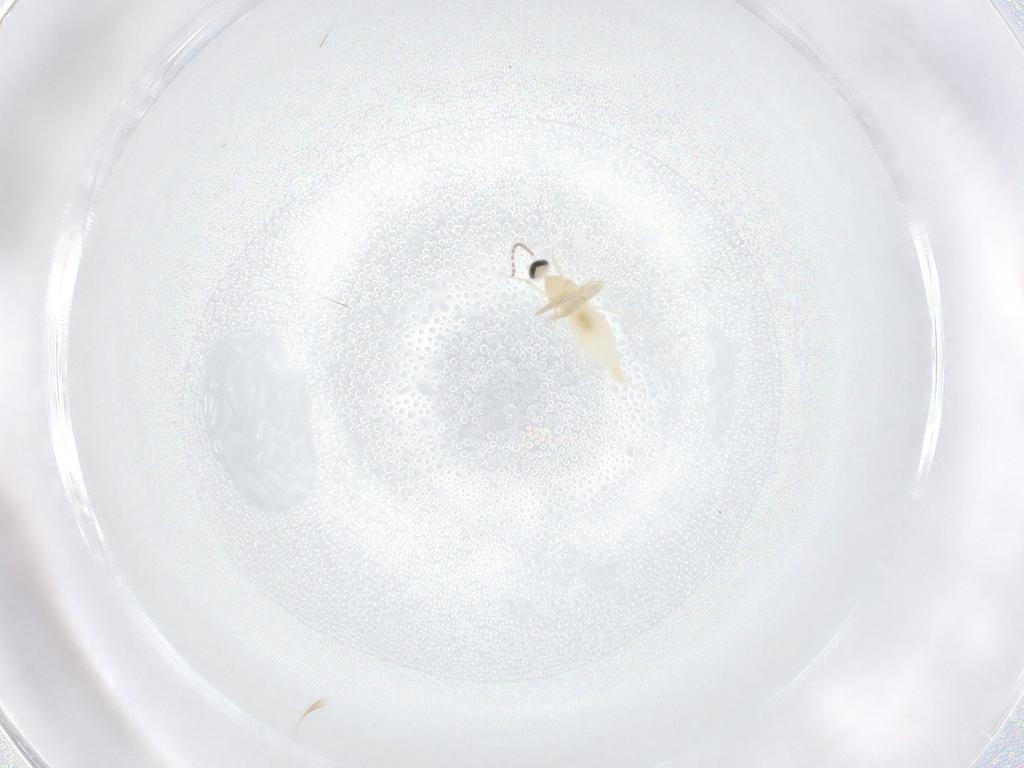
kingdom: Animalia
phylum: Arthropoda
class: Insecta
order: Diptera
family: Cecidomyiidae
